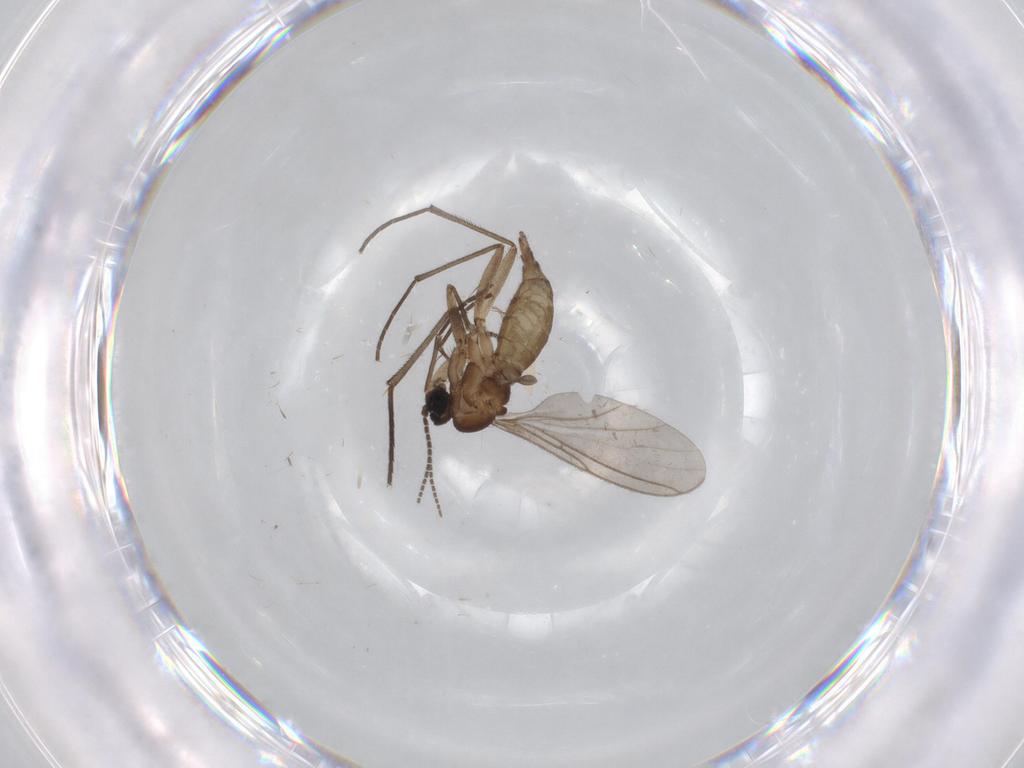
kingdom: Animalia
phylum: Arthropoda
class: Insecta
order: Diptera
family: Sciaridae
